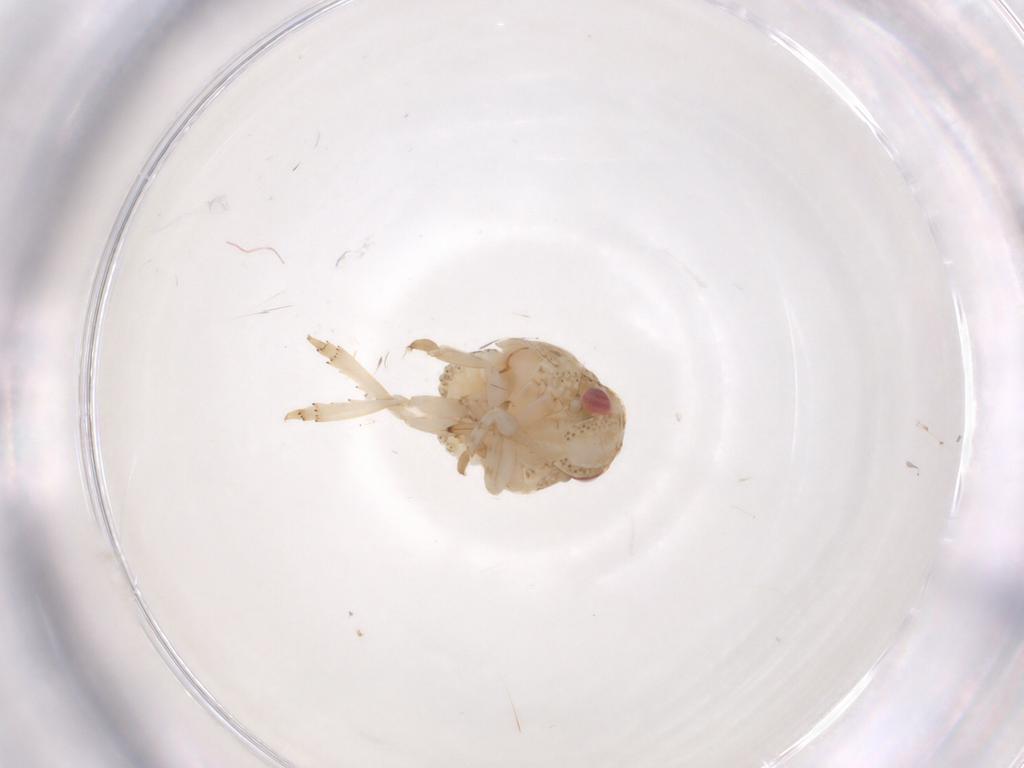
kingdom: Animalia
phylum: Arthropoda
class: Insecta
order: Hemiptera
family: Acanaloniidae
